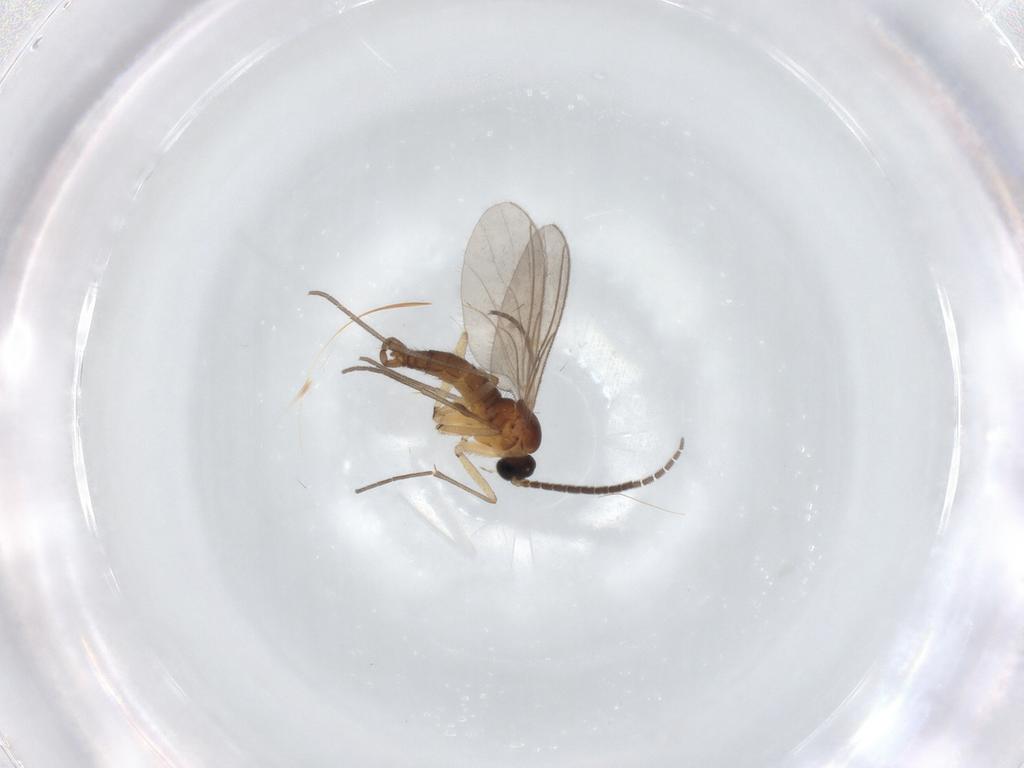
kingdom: Animalia
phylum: Arthropoda
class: Insecta
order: Diptera
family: Sciaridae
